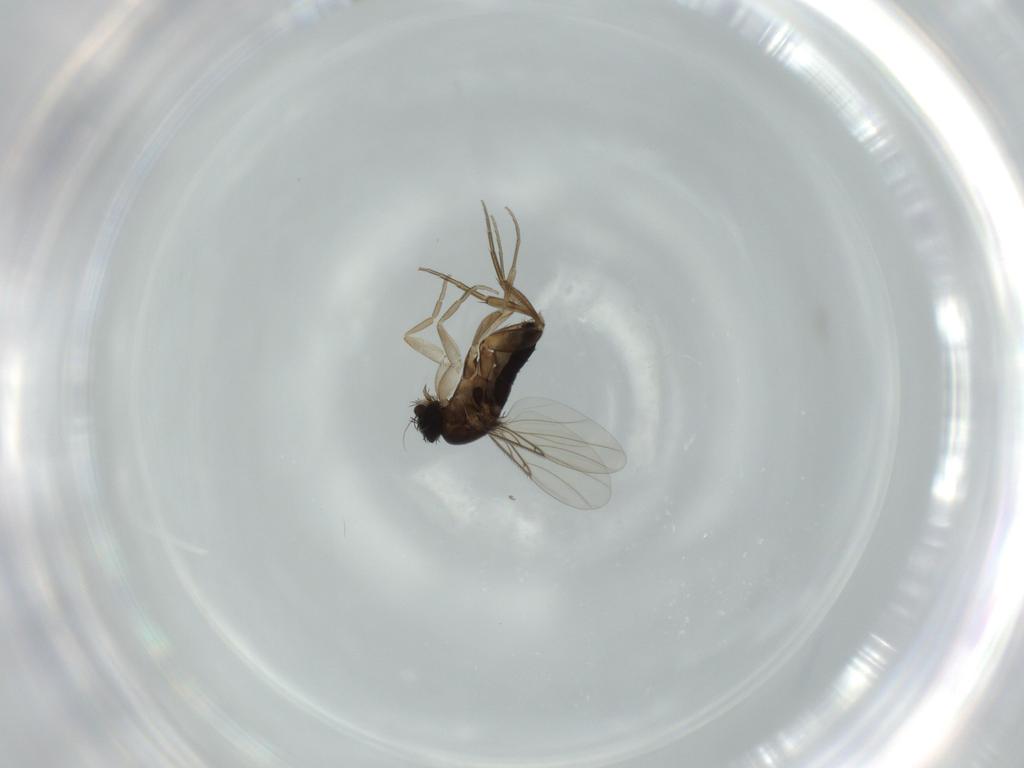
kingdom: Animalia
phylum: Arthropoda
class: Insecta
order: Diptera
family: Phoridae
